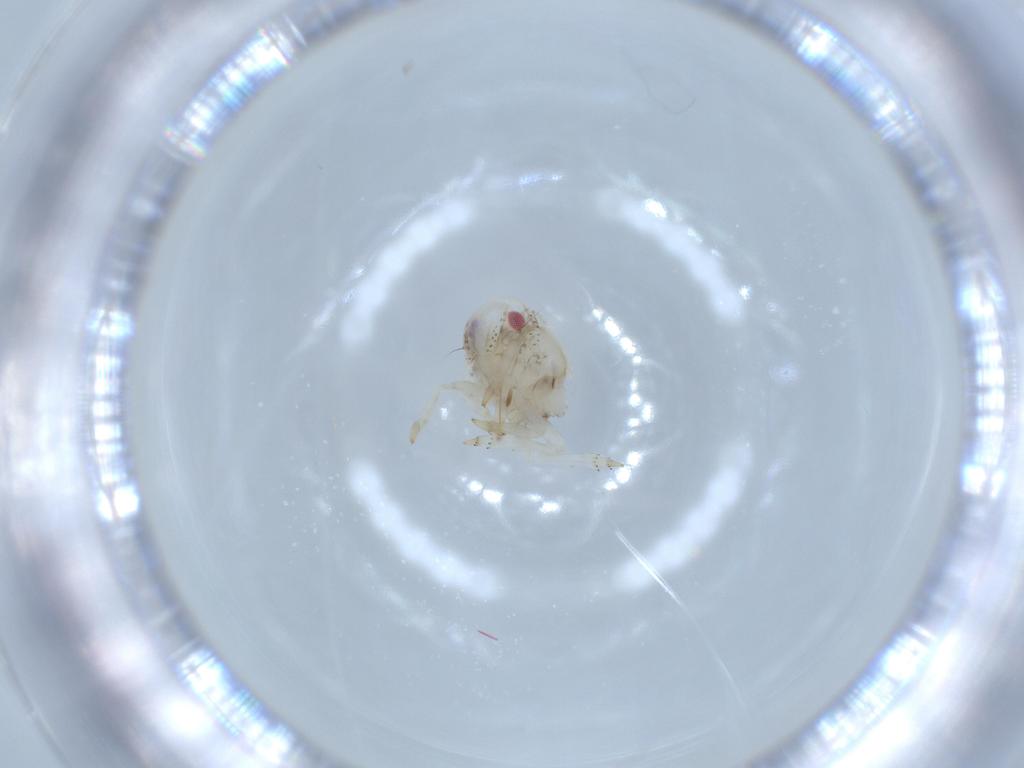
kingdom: Animalia
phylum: Arthropoda
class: Insecta
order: Hemiptera
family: Acanaloniidae
